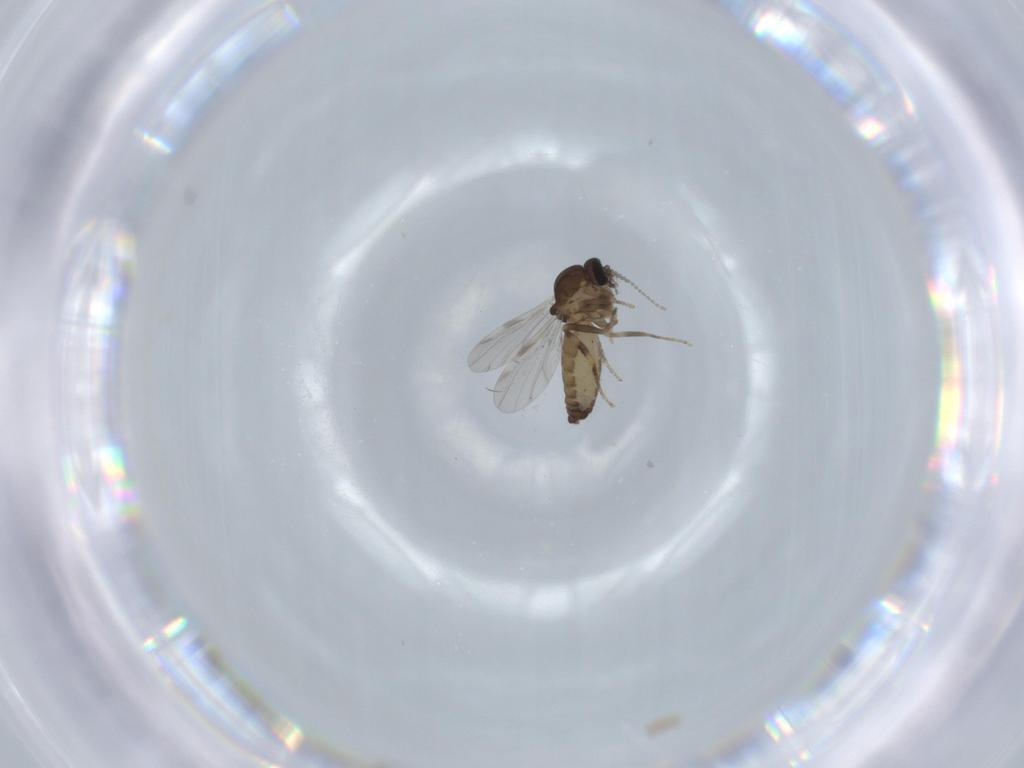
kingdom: Animalia
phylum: Arthropoda
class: Insecta
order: Diptera
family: Ceratopogonidae
